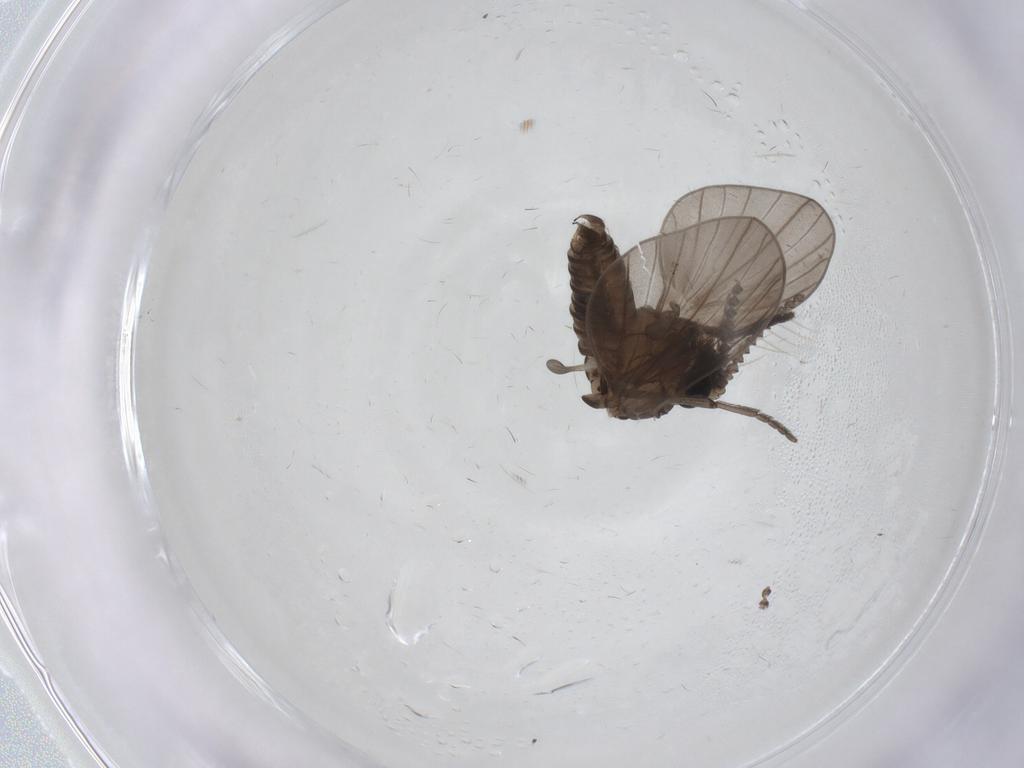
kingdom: Animalia
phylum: Arthropoda
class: Insecta
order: Diptera
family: Psychodidae
